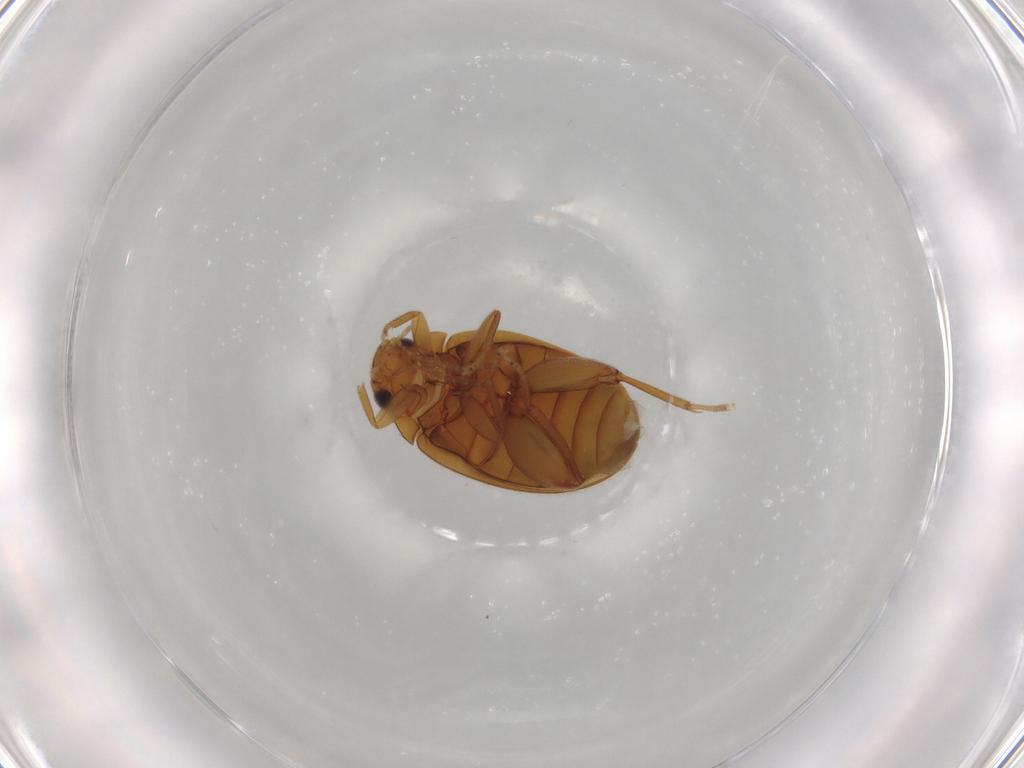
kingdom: Animalia
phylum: Arthropoda
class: Insecta
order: Coleoptera
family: Scirtidae
